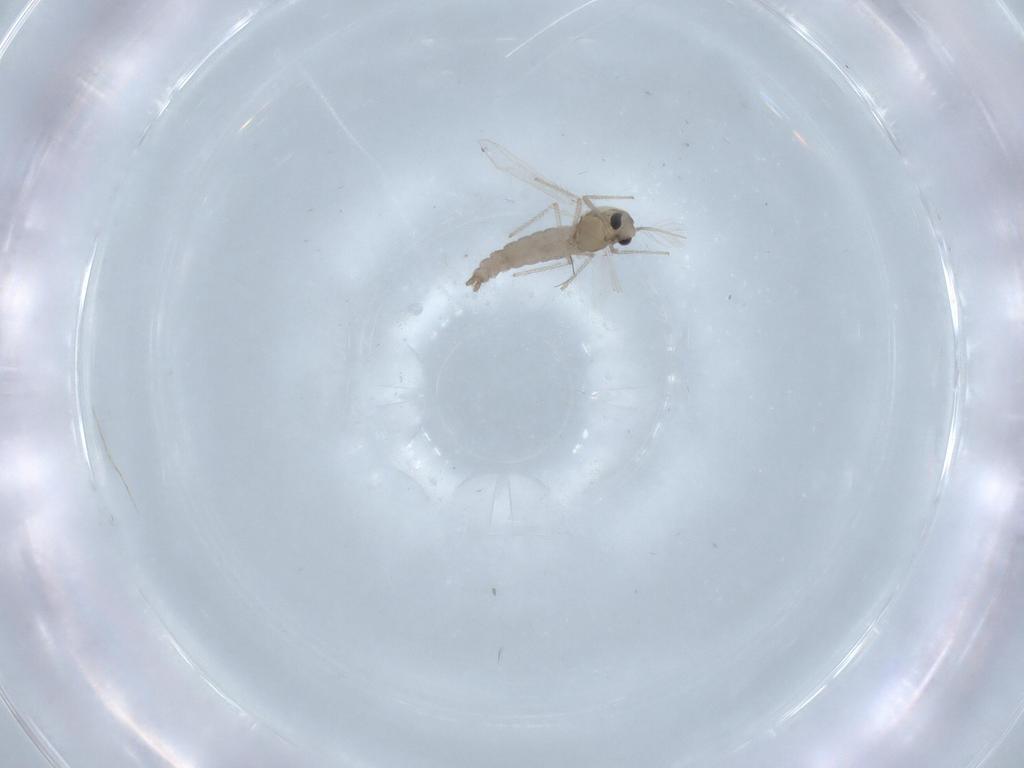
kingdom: Animalia
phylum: Arthropoda
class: Insecta
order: Diptera
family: Chironomidae
